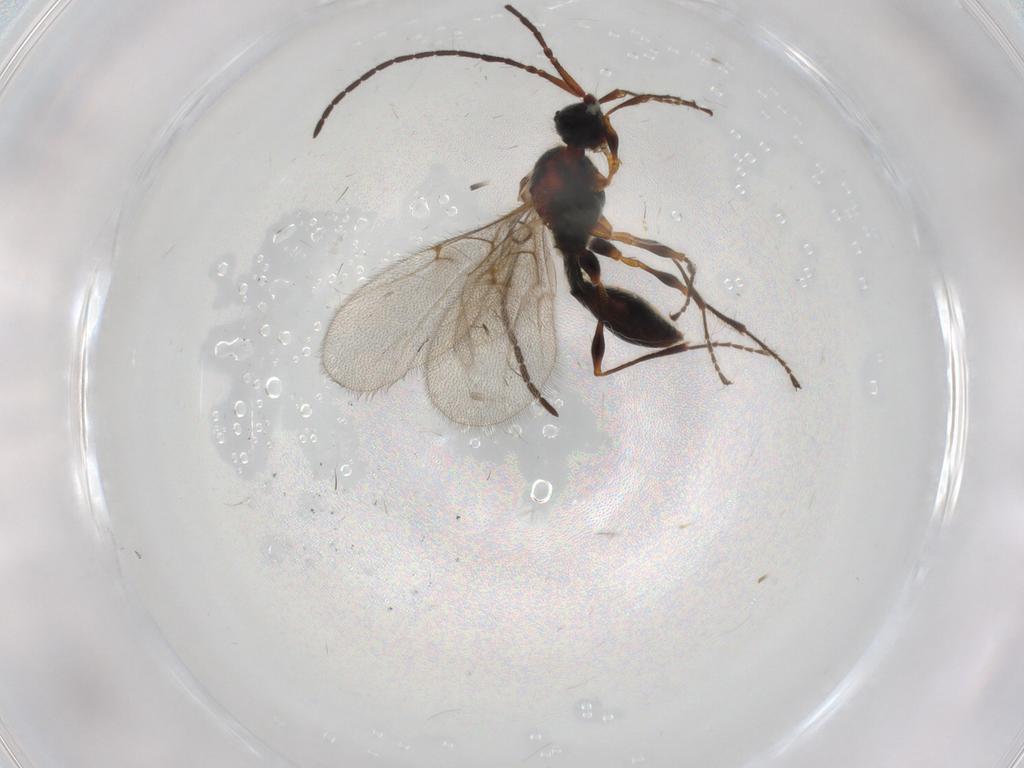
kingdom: Animalia
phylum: Arthropoda
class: Insecta
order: Hymenoptera
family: Diapriidae
